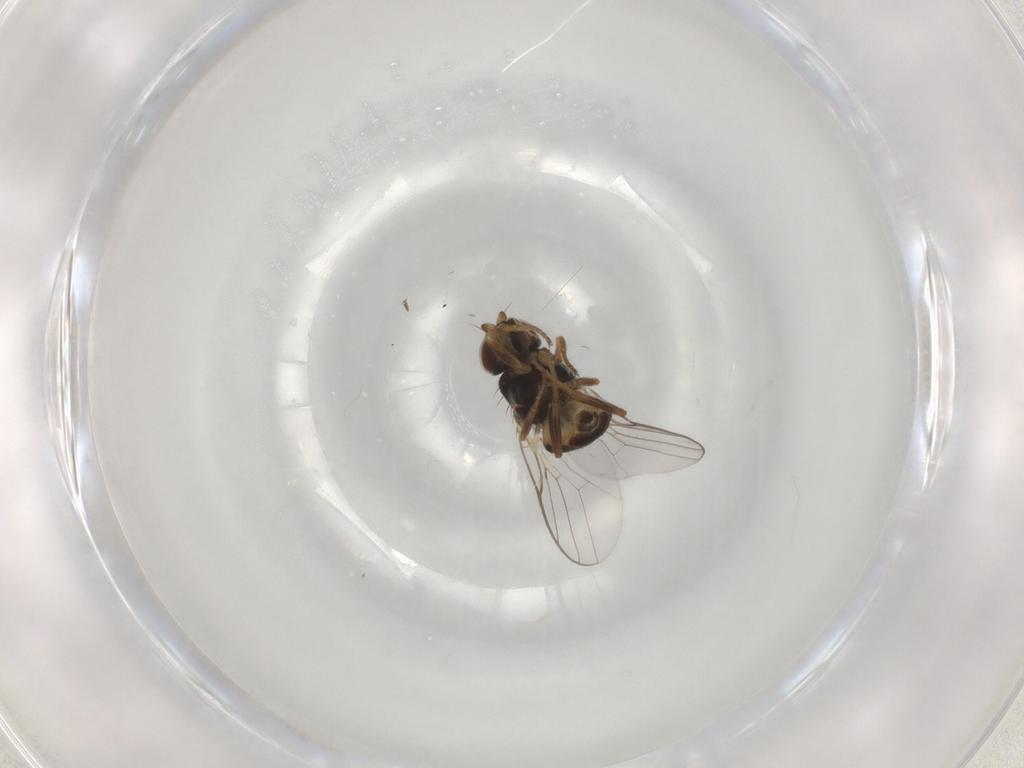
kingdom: Animalia
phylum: Arthropoda
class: Insecta
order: Diptera
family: Chloropidae
